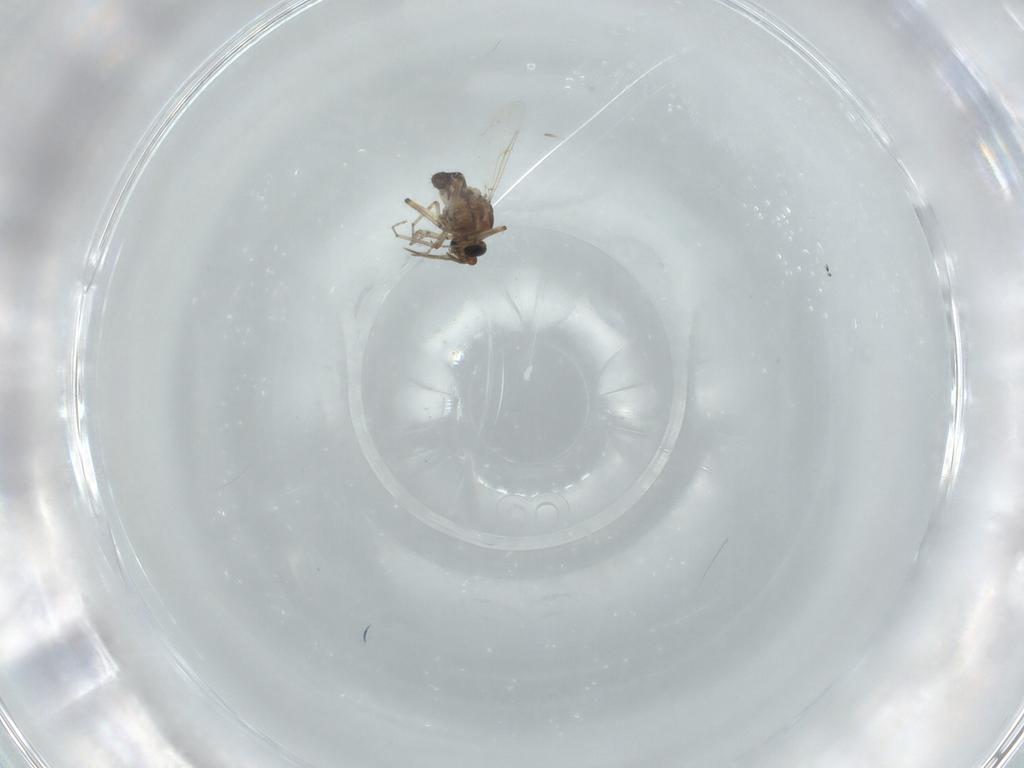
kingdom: Animalia
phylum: Arthropoda
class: Insecta
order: Diptera
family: Ceratopogonidae
